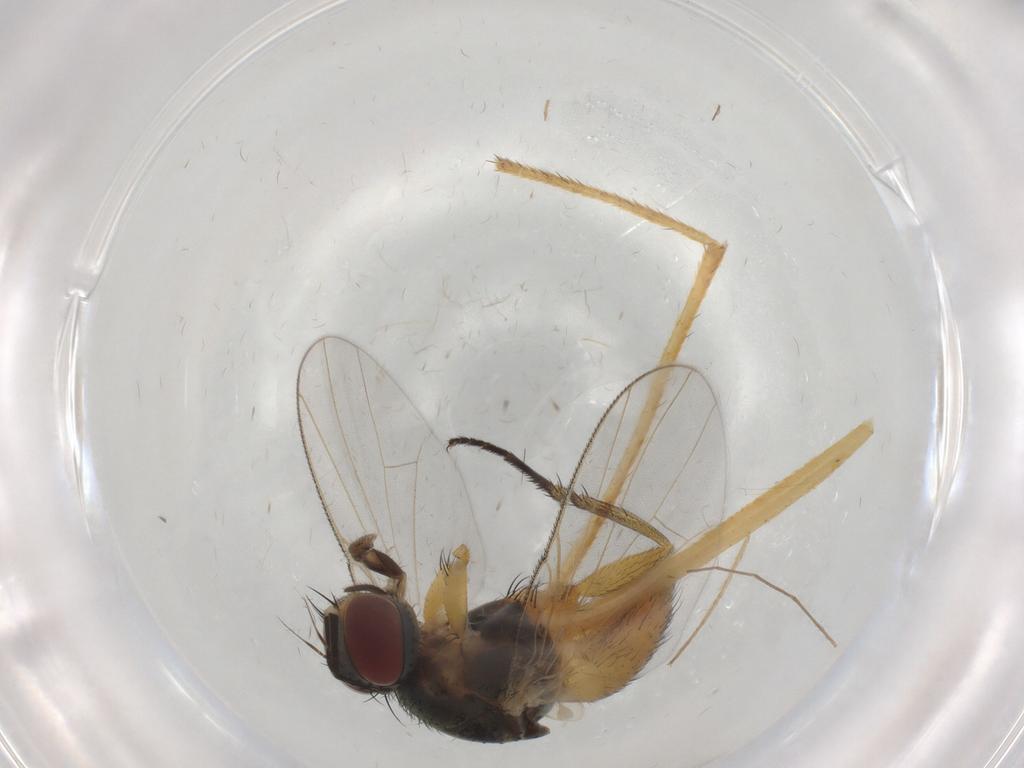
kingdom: Animalia
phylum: Arthropoda
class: Insecta
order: Diptera
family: Muscidae
